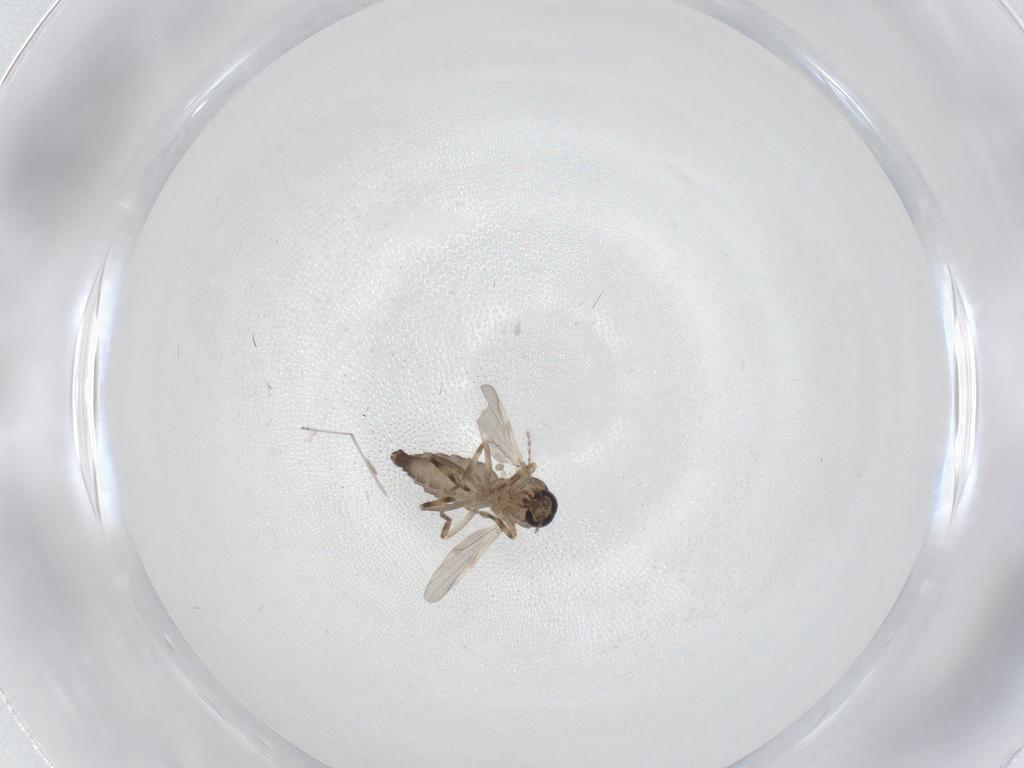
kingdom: Animalia
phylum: Arthropoda
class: Insecta
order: Diptera
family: Ceratopogonidae
